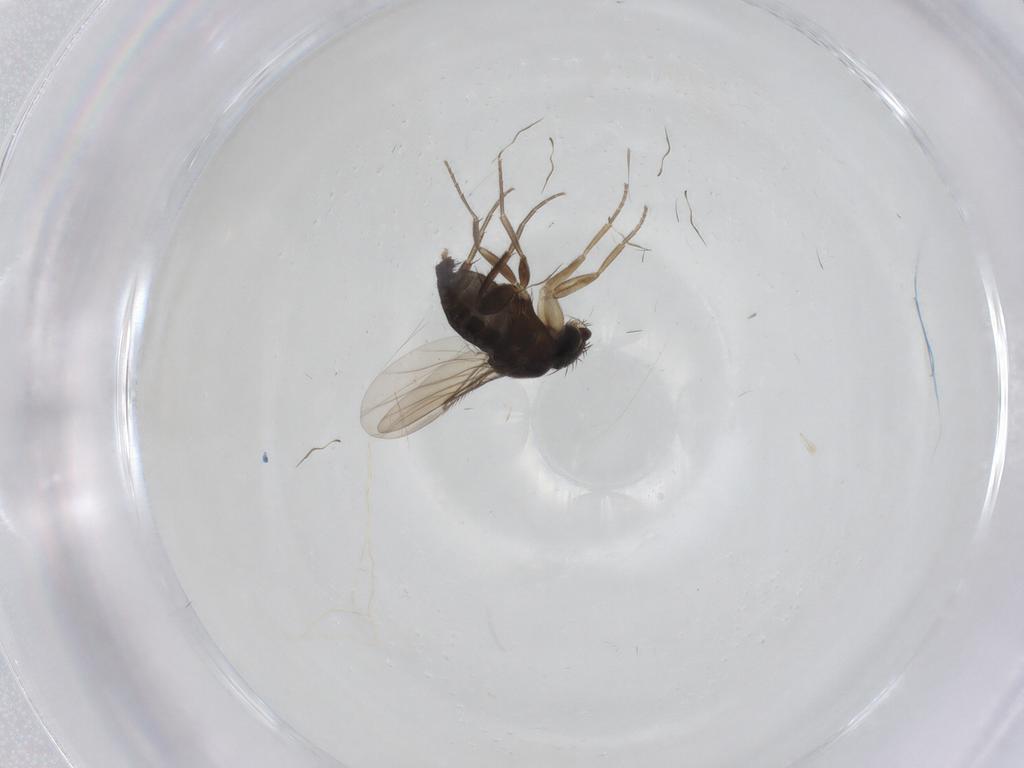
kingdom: Animalia
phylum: Arthropoda
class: Insecta
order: Diptera
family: Phoridae
